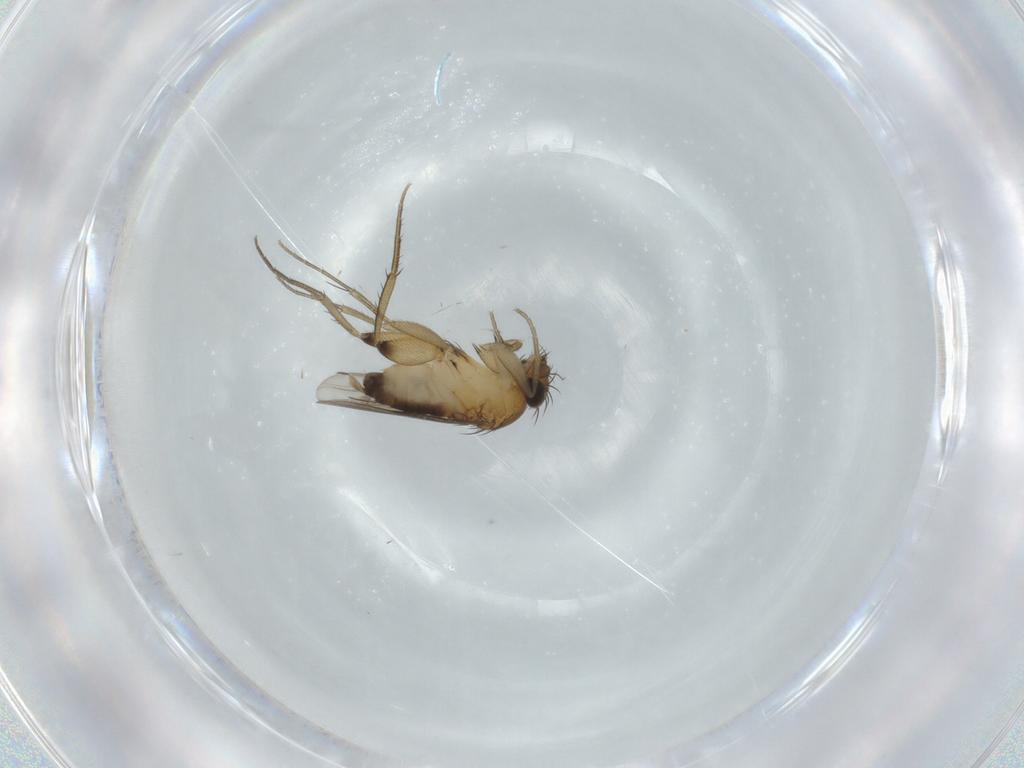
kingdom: Animalia
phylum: Arthropoda
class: Insecta
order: Diptera
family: Phoridae
